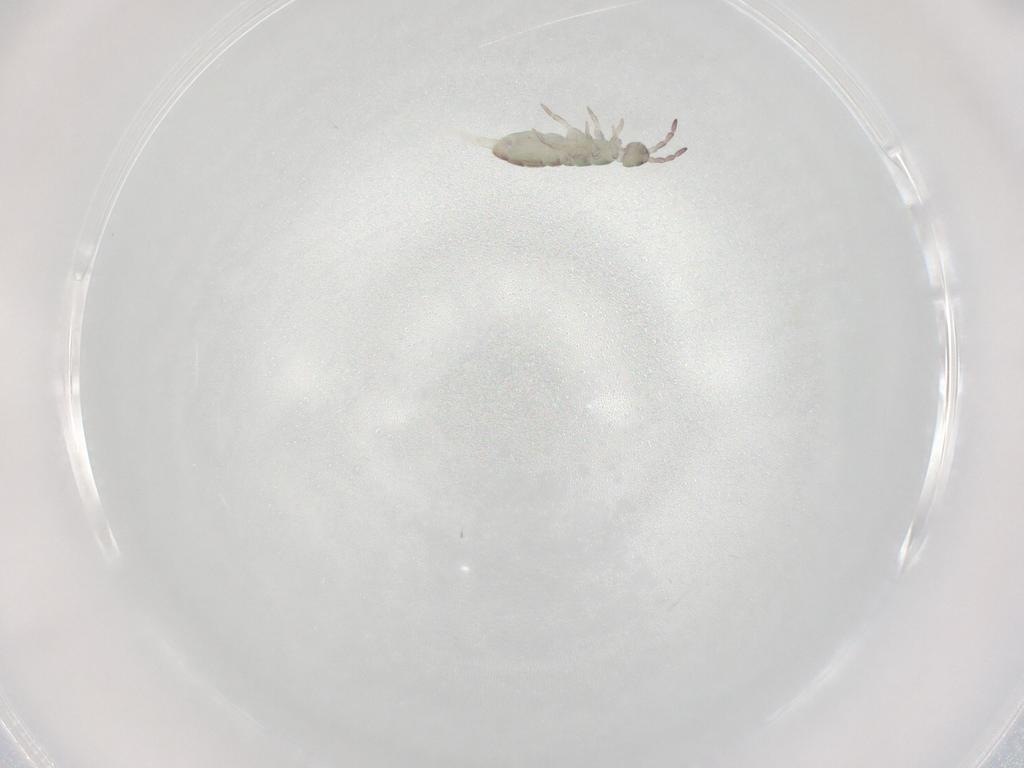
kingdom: Animalia
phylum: Arthropoda
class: Collembola
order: Entomobryomorpha
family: Isotomidae
